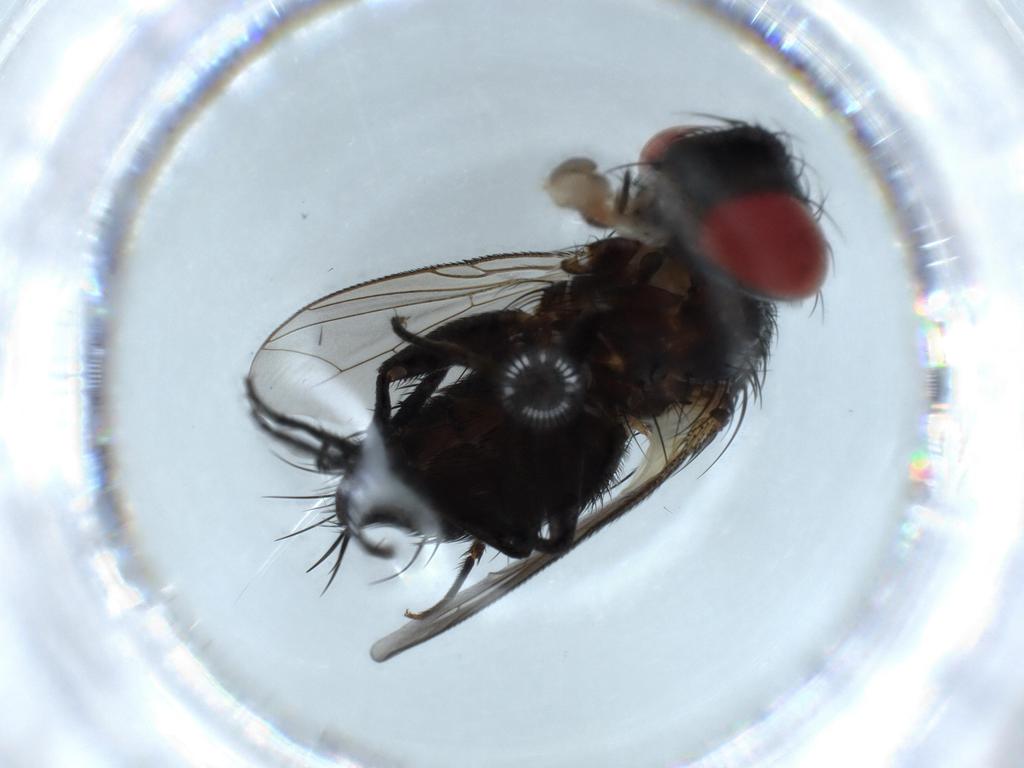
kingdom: Animalia
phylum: Arthropoda
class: Insecta
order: Diptera
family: Sarcophagidae
